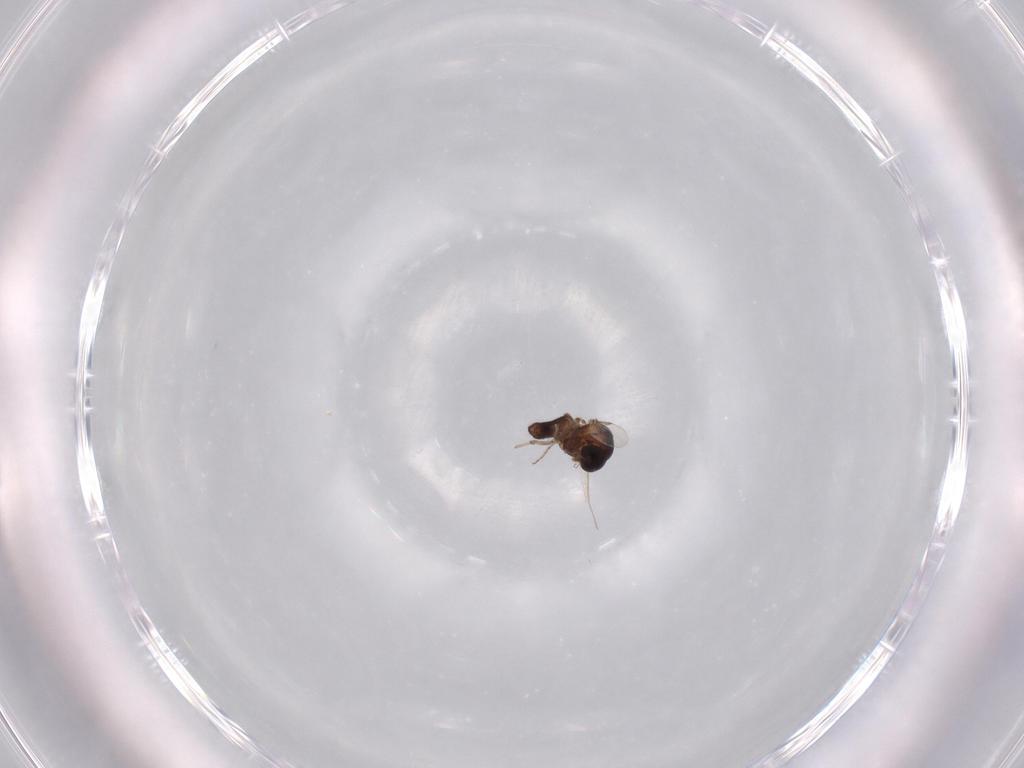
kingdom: Animalia
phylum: Arthropoda
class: Insecta
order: Diptera
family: Ceratopogonidae
